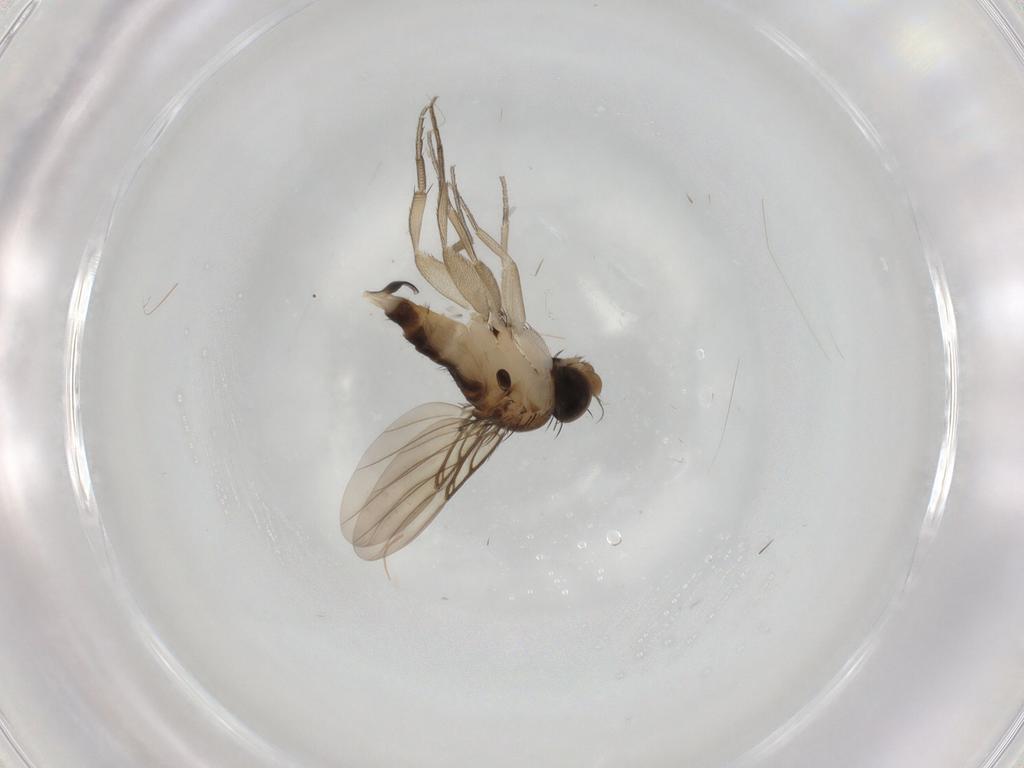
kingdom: Animalia
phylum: Arthropoda
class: Insecta
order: Diptera
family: Phoridae
